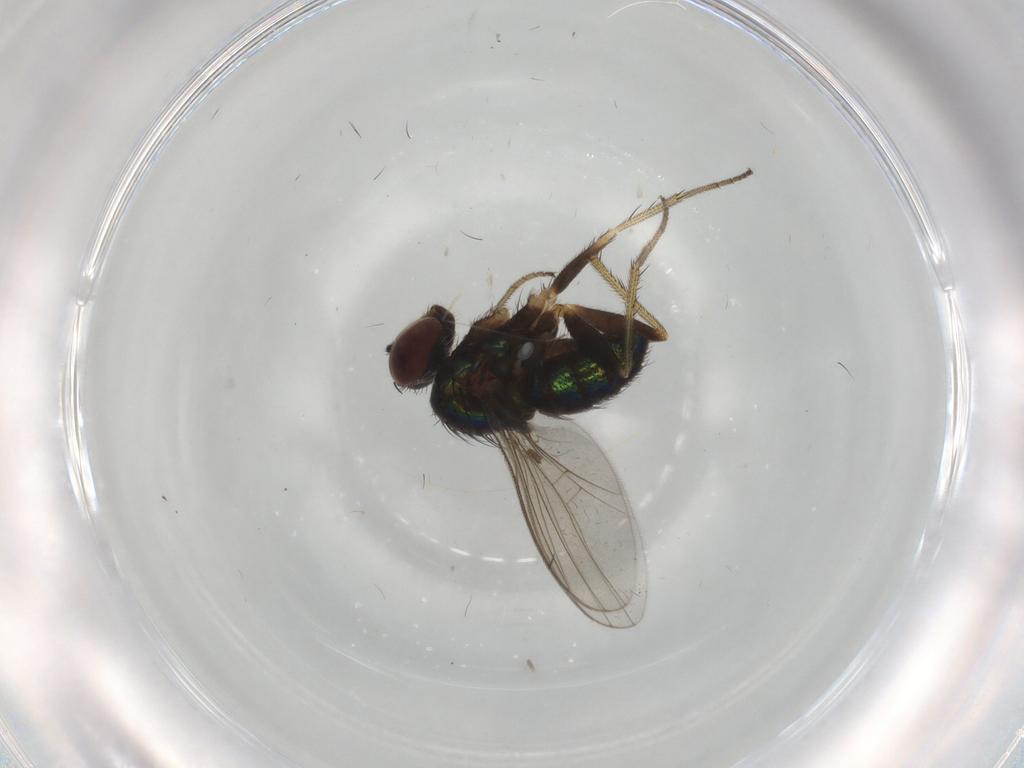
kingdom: Animalia
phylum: Arthropoda
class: Insecta
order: Diptera
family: Dolichopodidae
